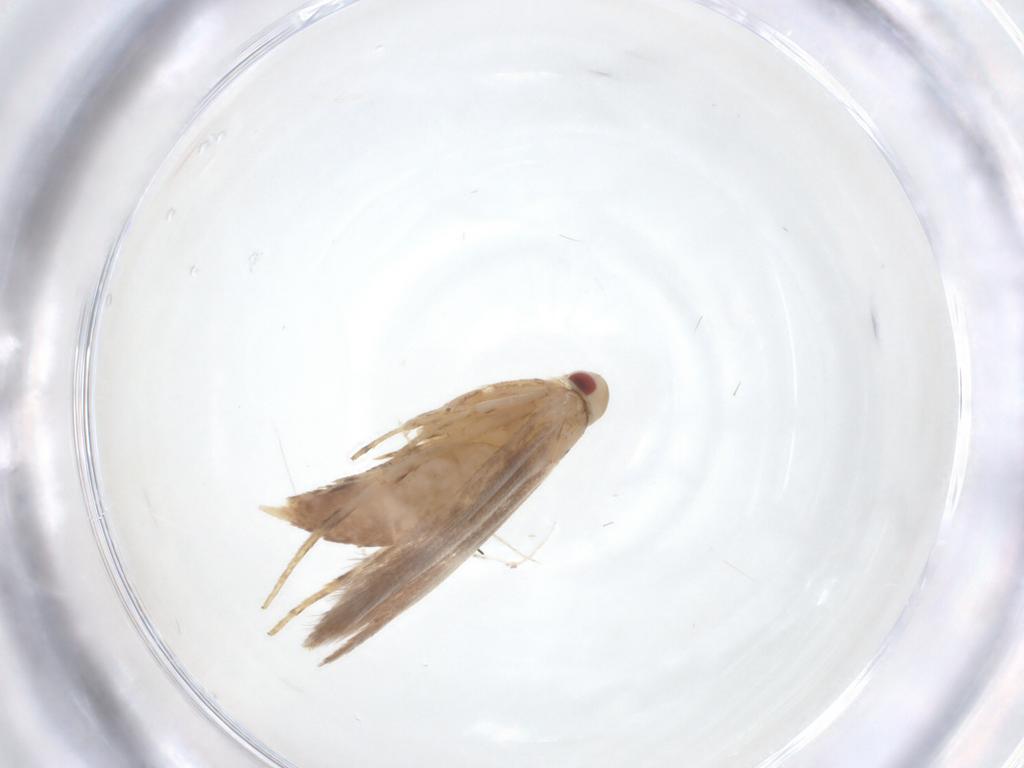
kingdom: Animalia
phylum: Arthropoda
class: Insecta
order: Lepidoptera
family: Cosmopterigidae
